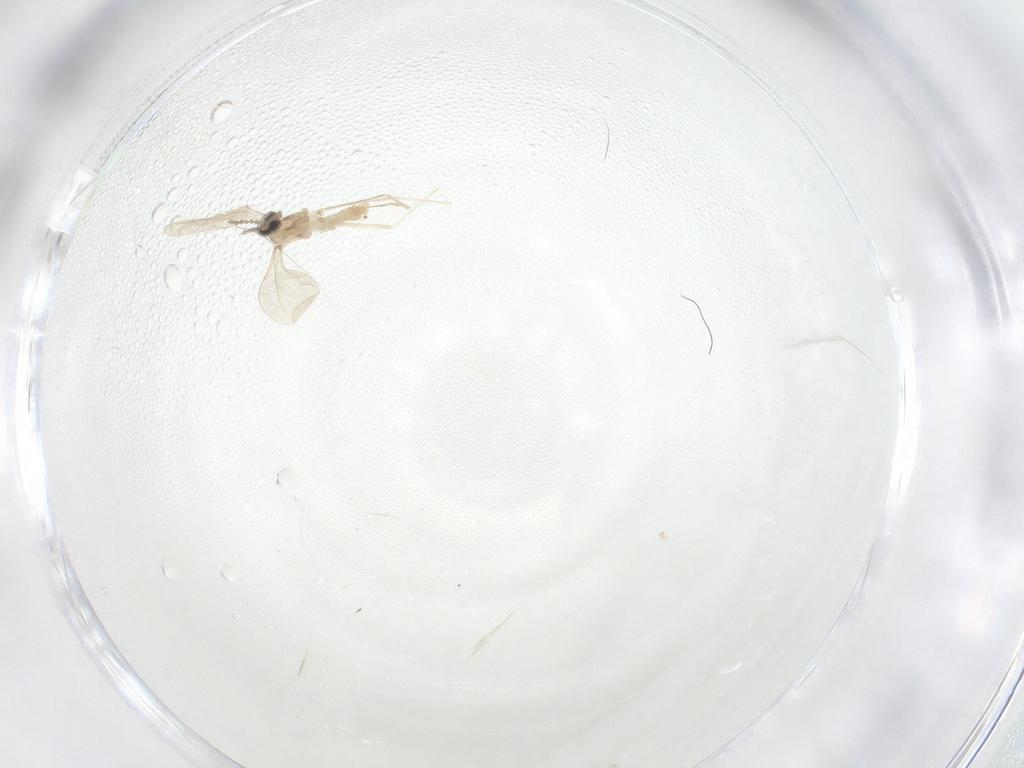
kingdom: Animalia
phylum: Arthropoda
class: Insecta
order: Diptera
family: Cecidomyiidae
